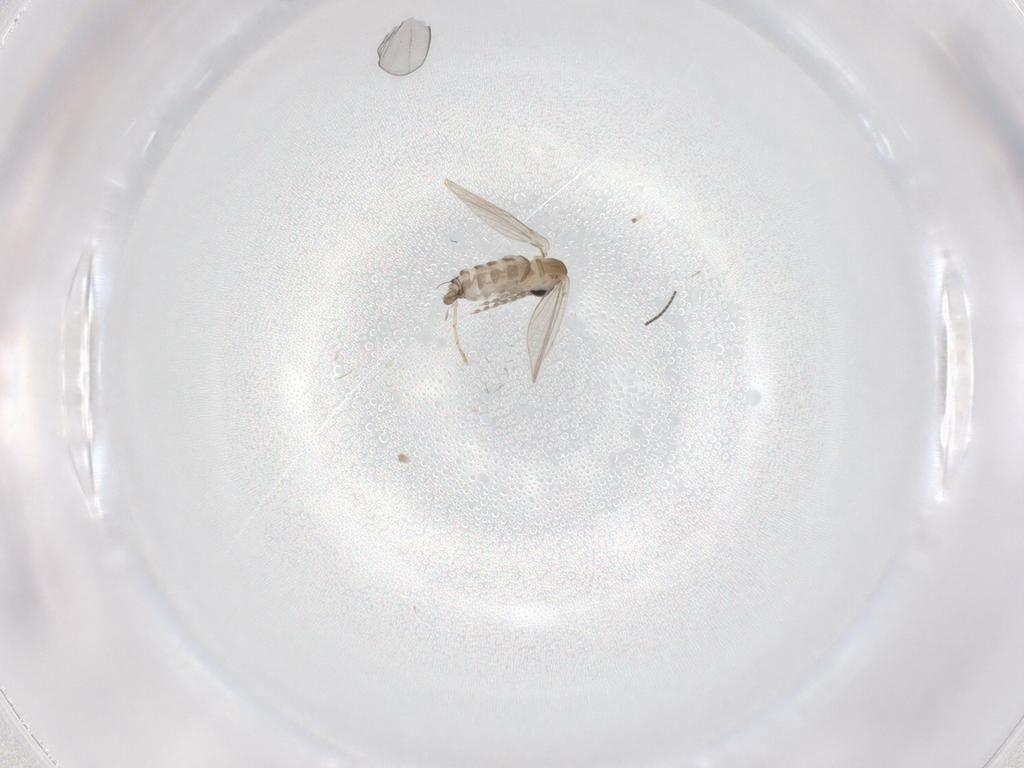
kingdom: Animalia
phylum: Arthropoda
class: Insecta
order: Diptera
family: Sciaridae
